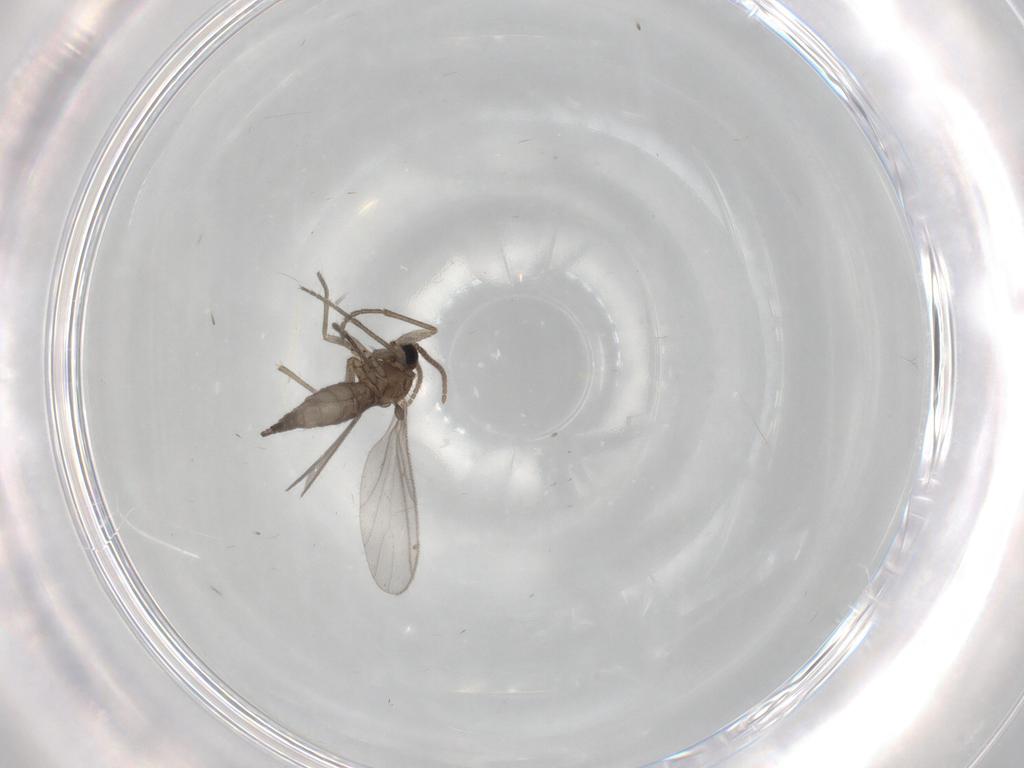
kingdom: Animalia
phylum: Arthropoda
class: Insecta
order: Diptera
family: Sciaridae
